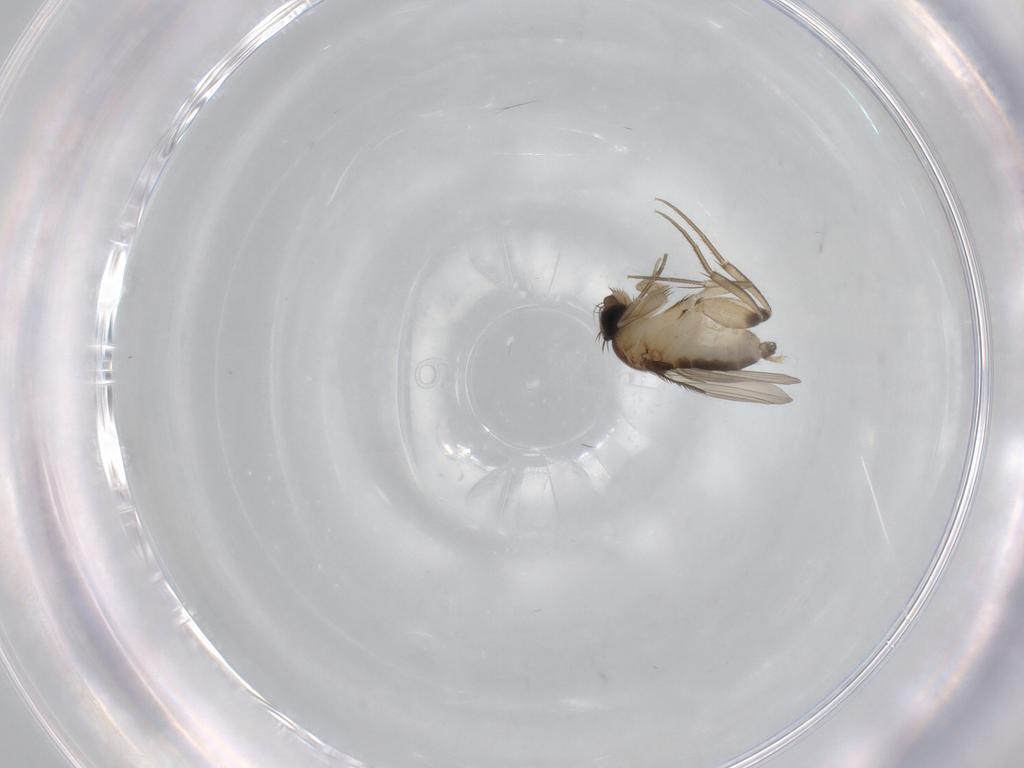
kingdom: Animalia
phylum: Arthropoda
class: Insecta
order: Diptera
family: Phoridae
